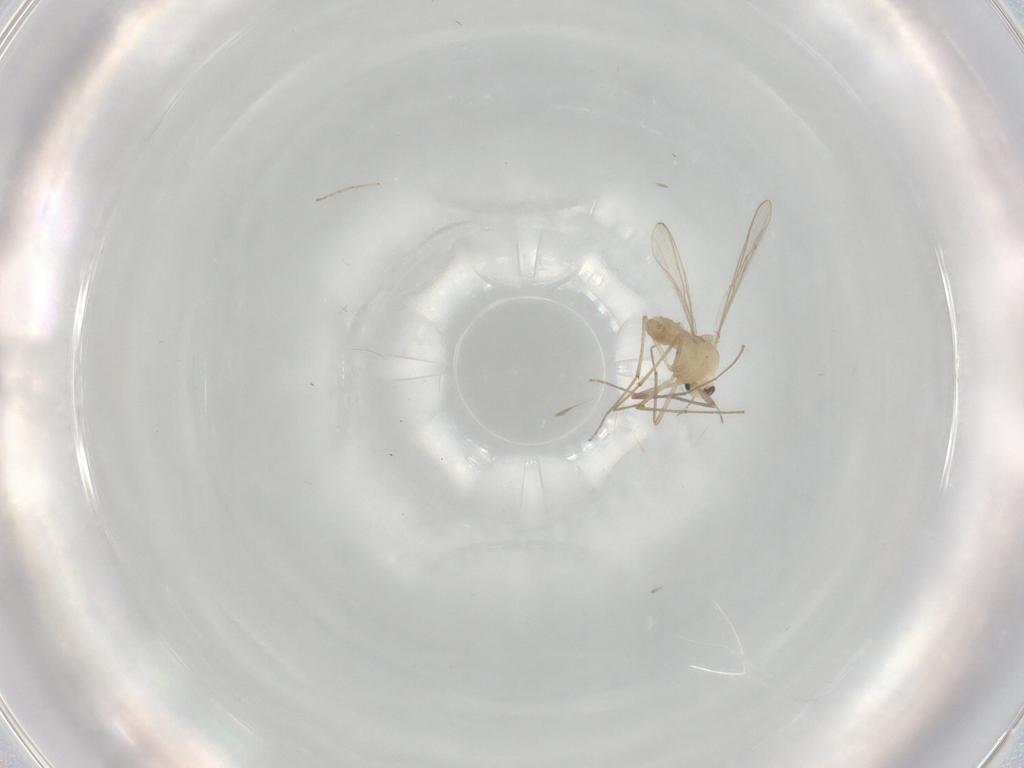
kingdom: Animalia
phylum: Arthropoda
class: Insecta
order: Diptera
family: Chironomidae
